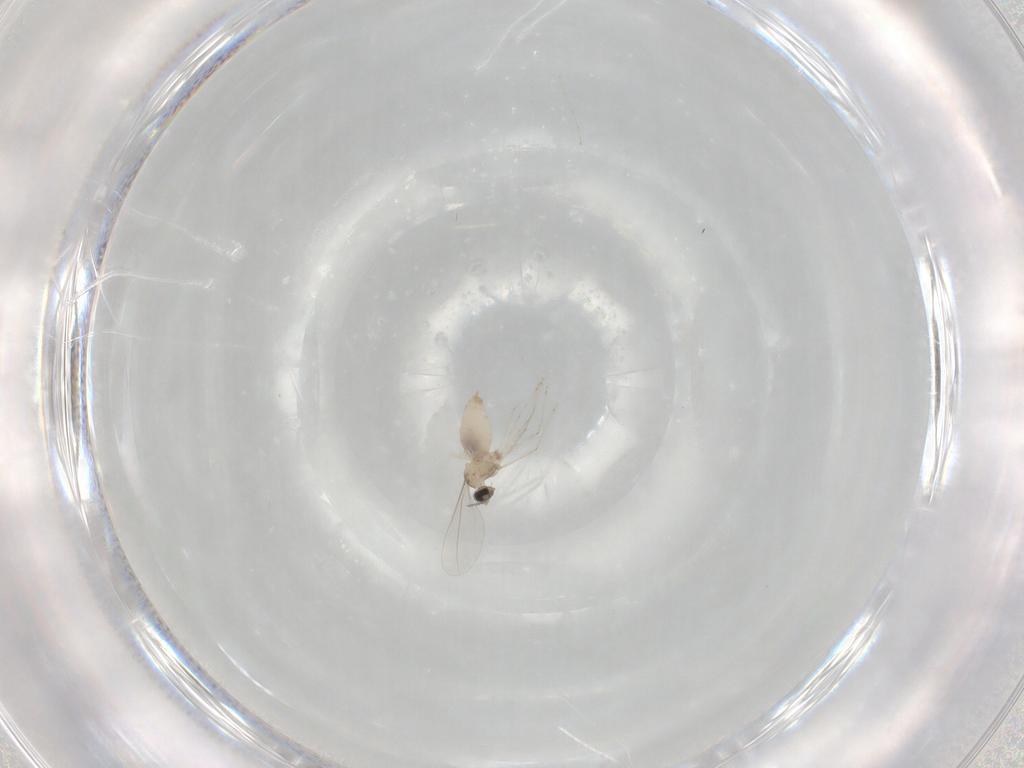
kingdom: Animalia
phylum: Arthropoda
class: Insecta
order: Diptera
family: Cecidomyiidae
